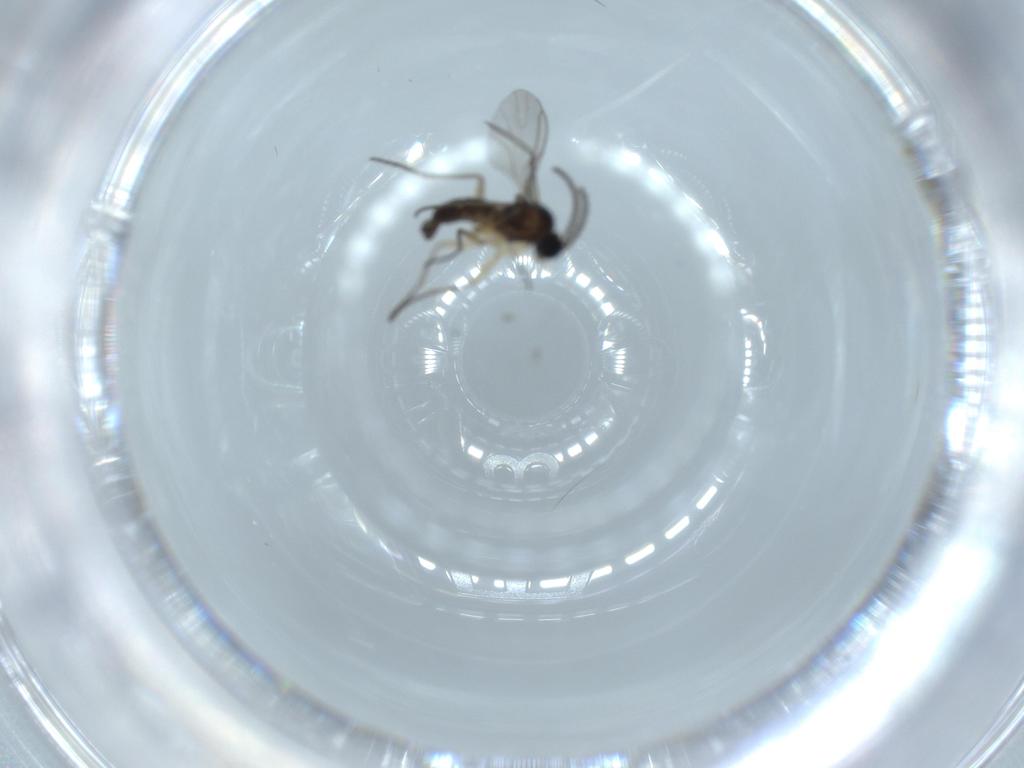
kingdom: Animalia
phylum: Arthropoda
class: Insecta
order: Diptera
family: Sciaridae
